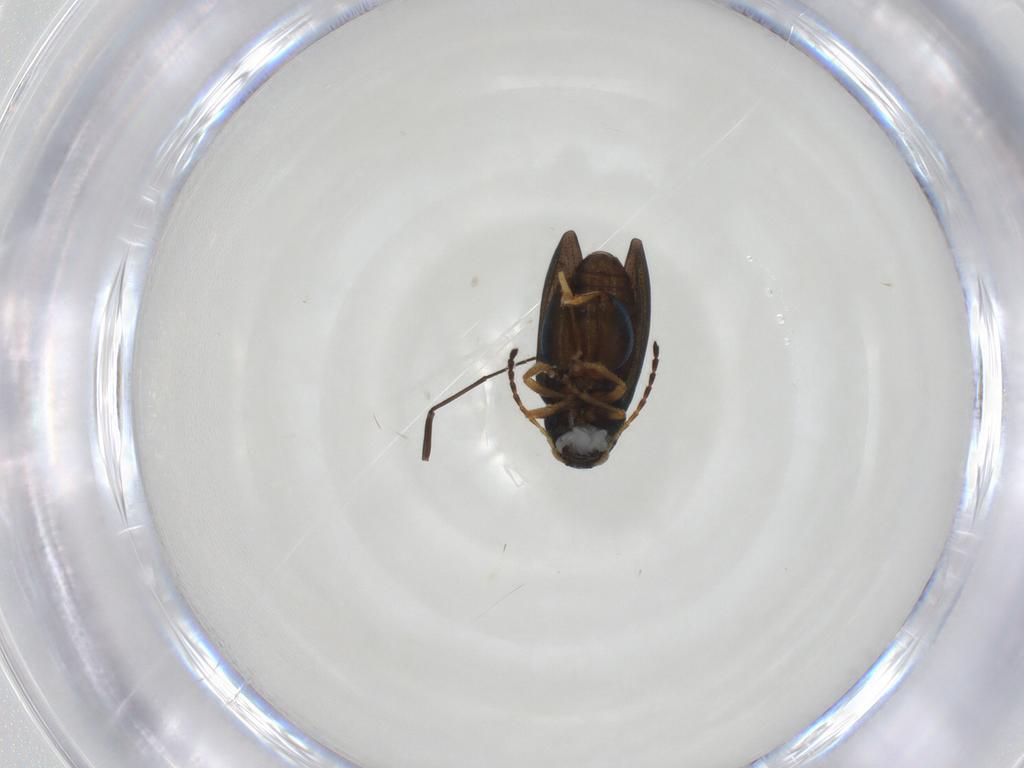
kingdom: Animalia
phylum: Arthropoda
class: Insecta
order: Coleoptera
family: Chrysomelidae
